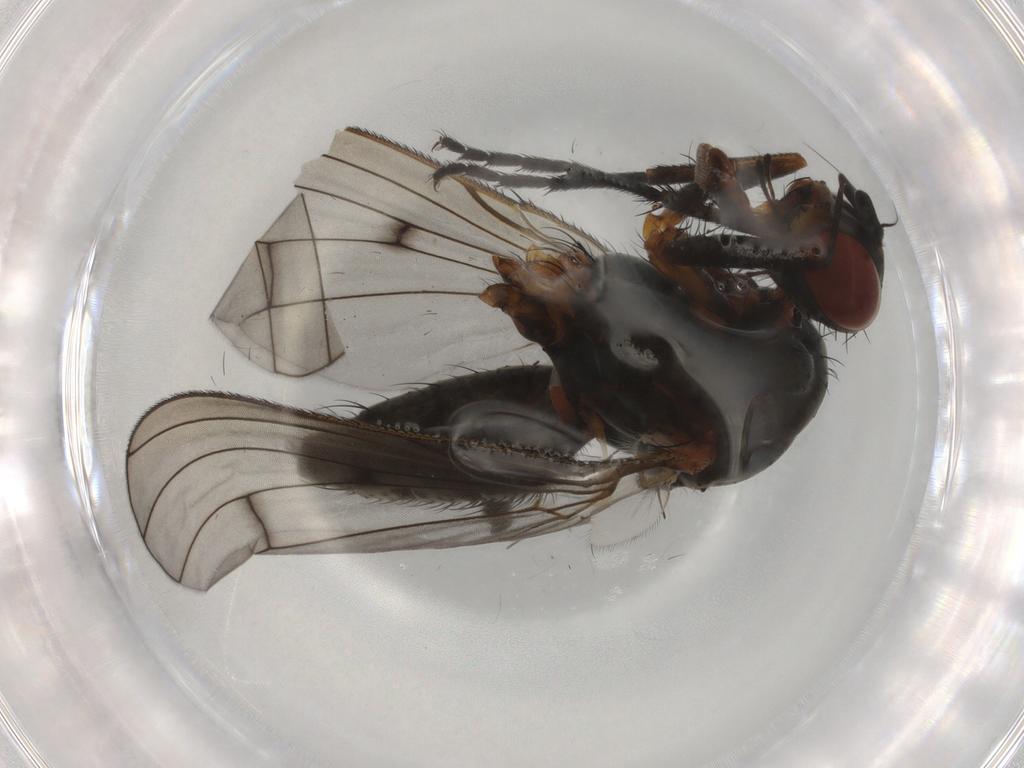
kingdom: Animalia
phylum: Arthropoda
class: Insecta
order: Diptera
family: Anthomyiidae
